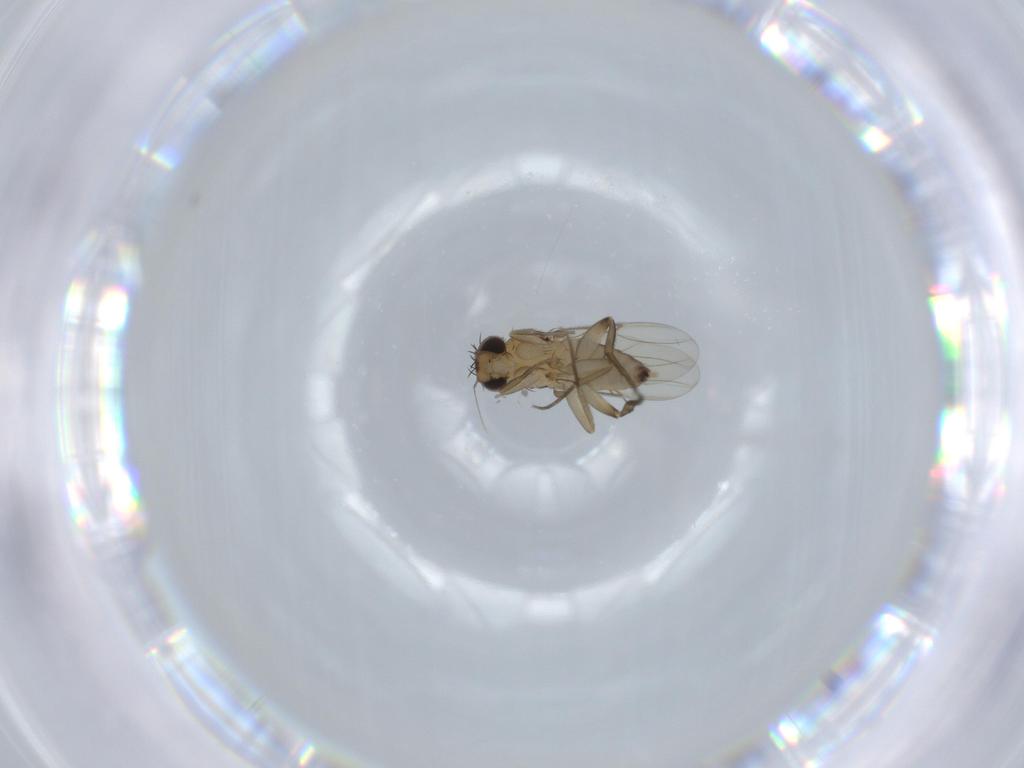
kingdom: Animalia
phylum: Arthropoda
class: Insecta
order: Diptera
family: Phoridae
